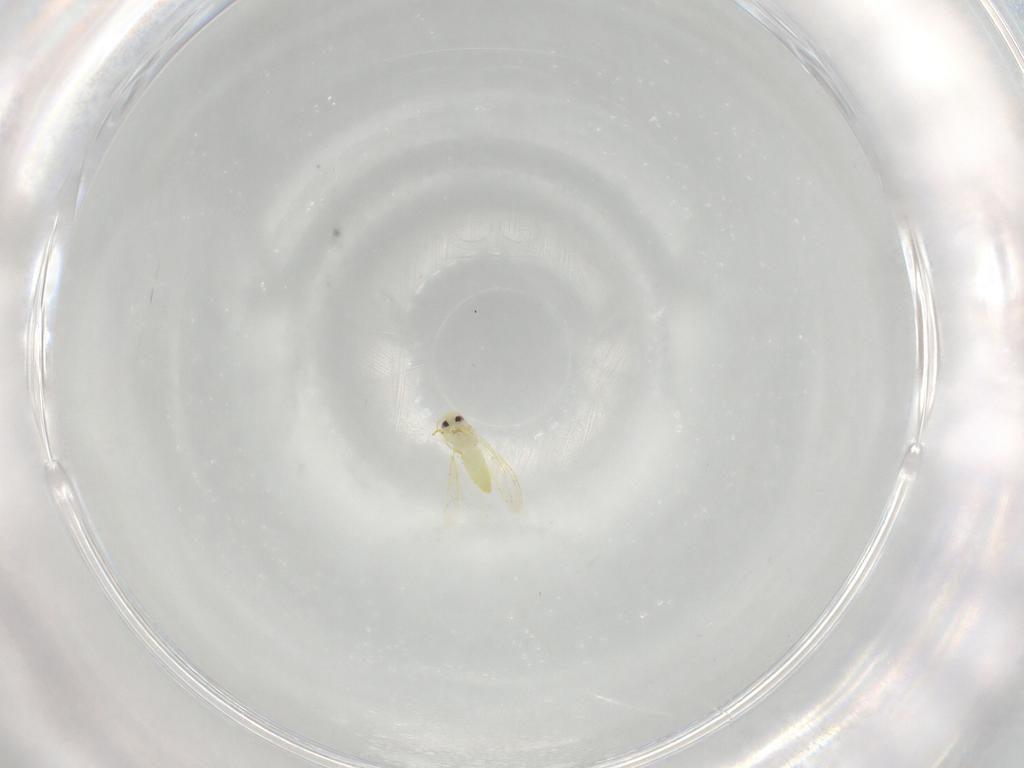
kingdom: Animalia
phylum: Arthropoda
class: Insecta
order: Hemiptera
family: Aleyrodidae
